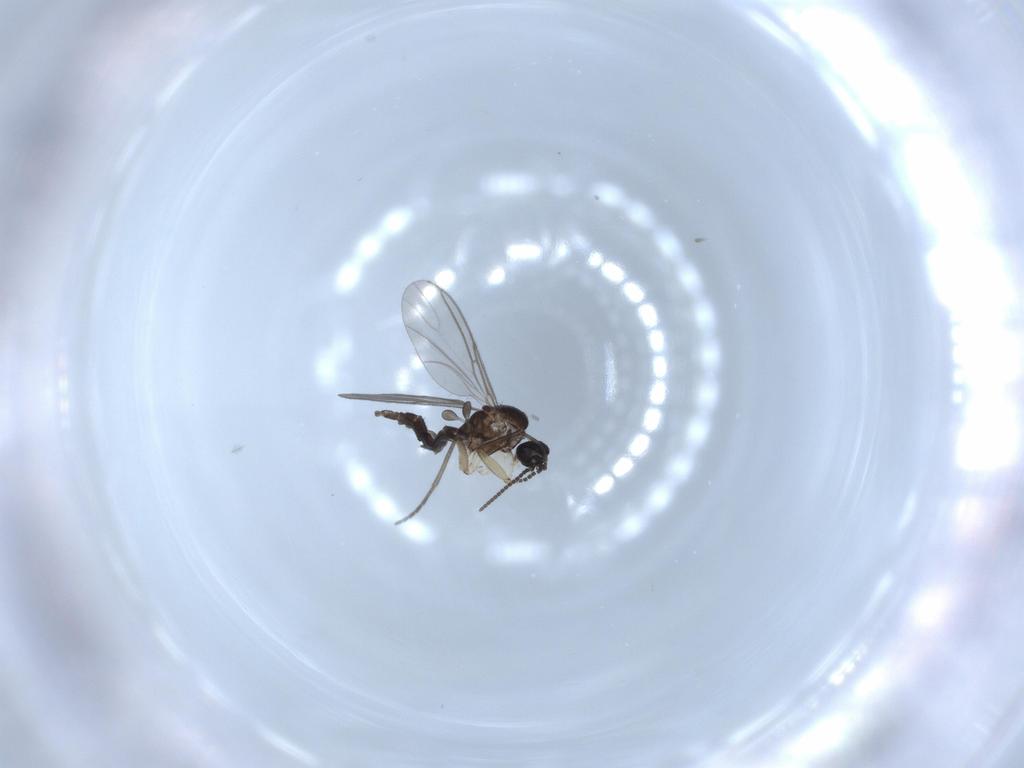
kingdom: Animalia
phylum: Arthropoda
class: Insecta
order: Diptera
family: Sciaridae
